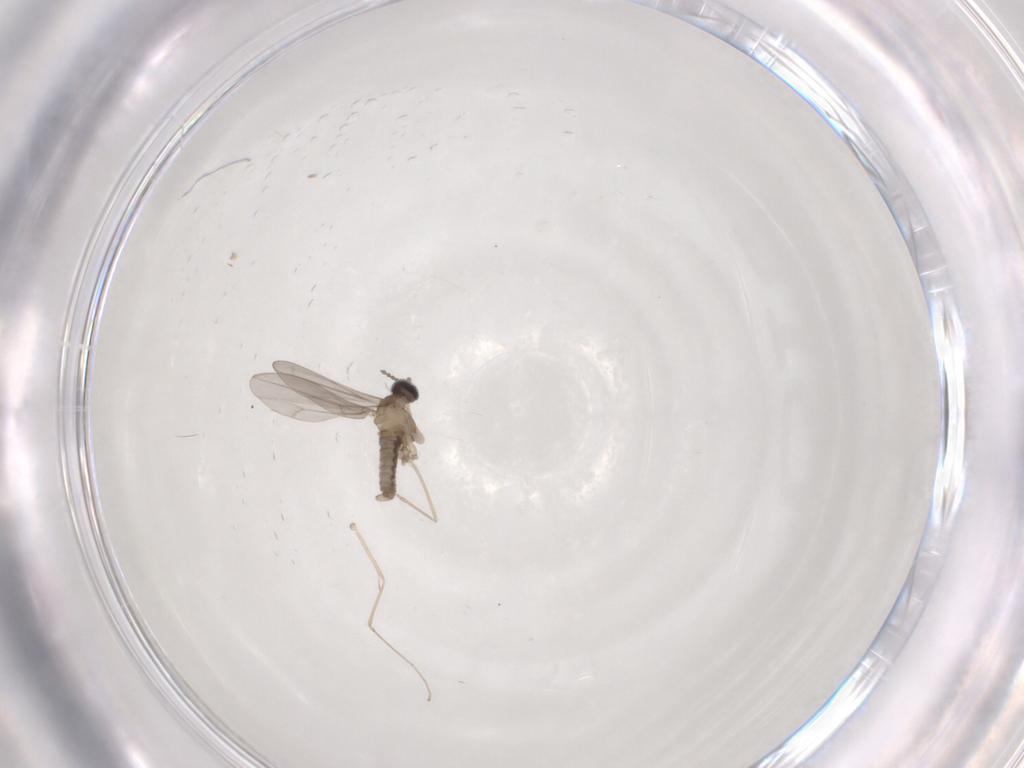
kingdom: Animalia
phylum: Arthropoda
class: Insecta
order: Diptera
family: Cecidomyiidae
